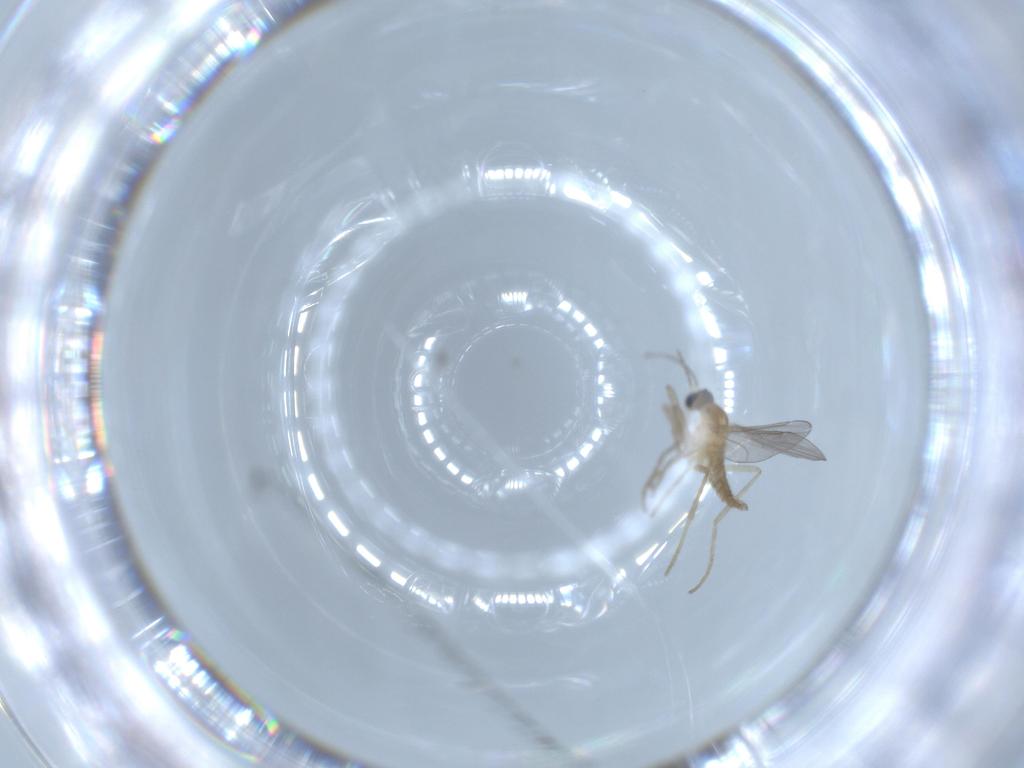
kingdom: Animalia
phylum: Arthropoda
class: Insecta
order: Diptera
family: Cecidomyiidae
